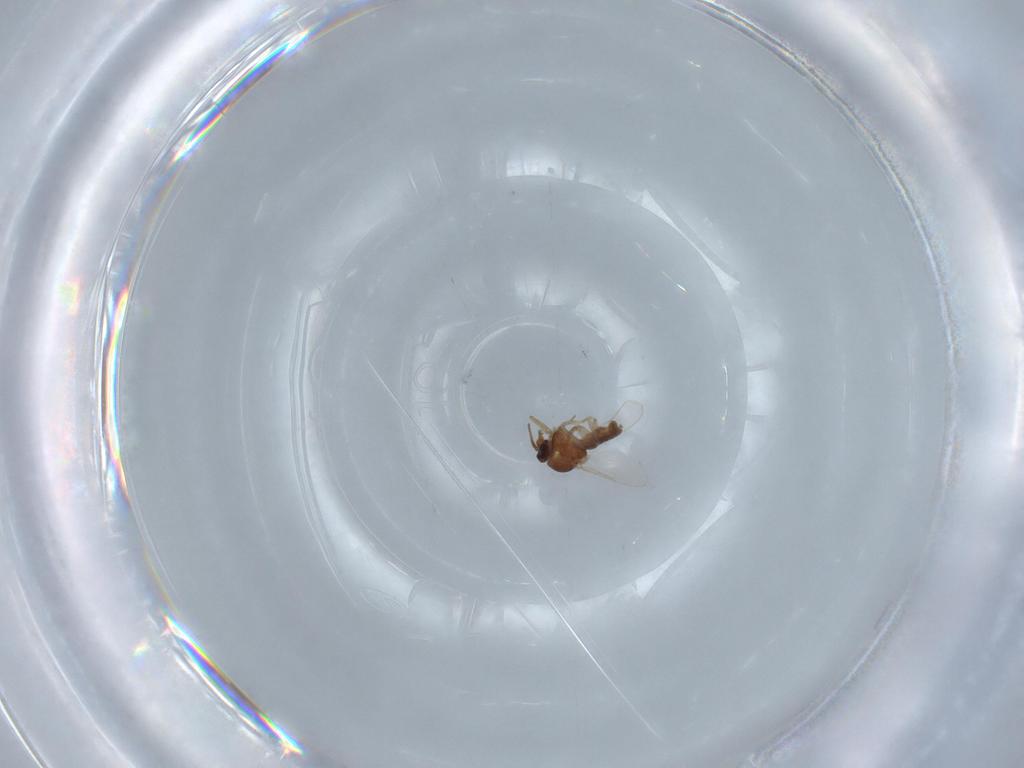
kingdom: Animalia
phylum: Arthropoda
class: Insecta
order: Diptera
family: Ceratopogonidae
